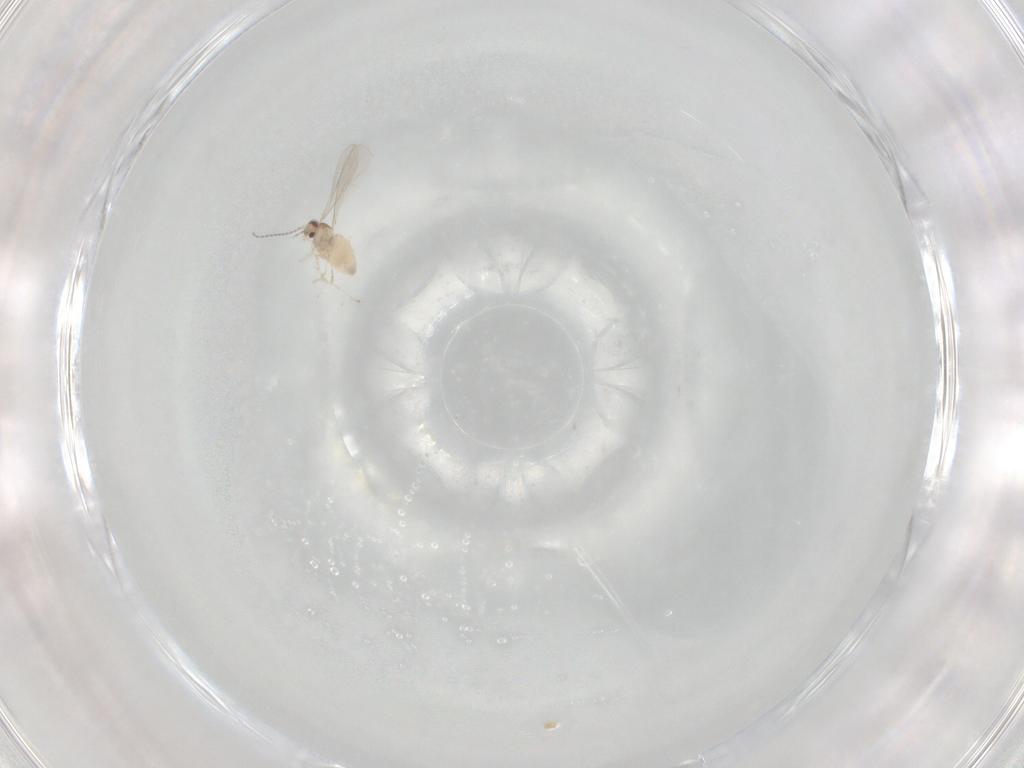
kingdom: Animalia
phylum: Arthropoda
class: Insecta
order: Diptera
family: Cecidomyiidae
